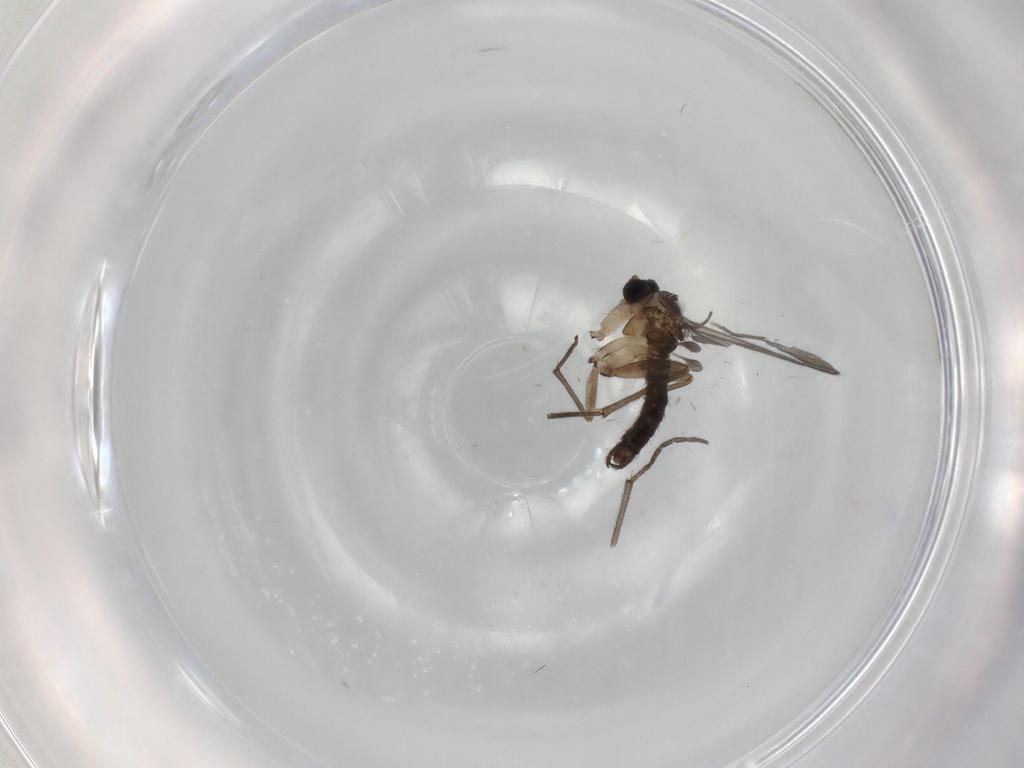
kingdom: Animalia
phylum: Arthropoda
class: Insecta
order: Diptera
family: Sciaridae
